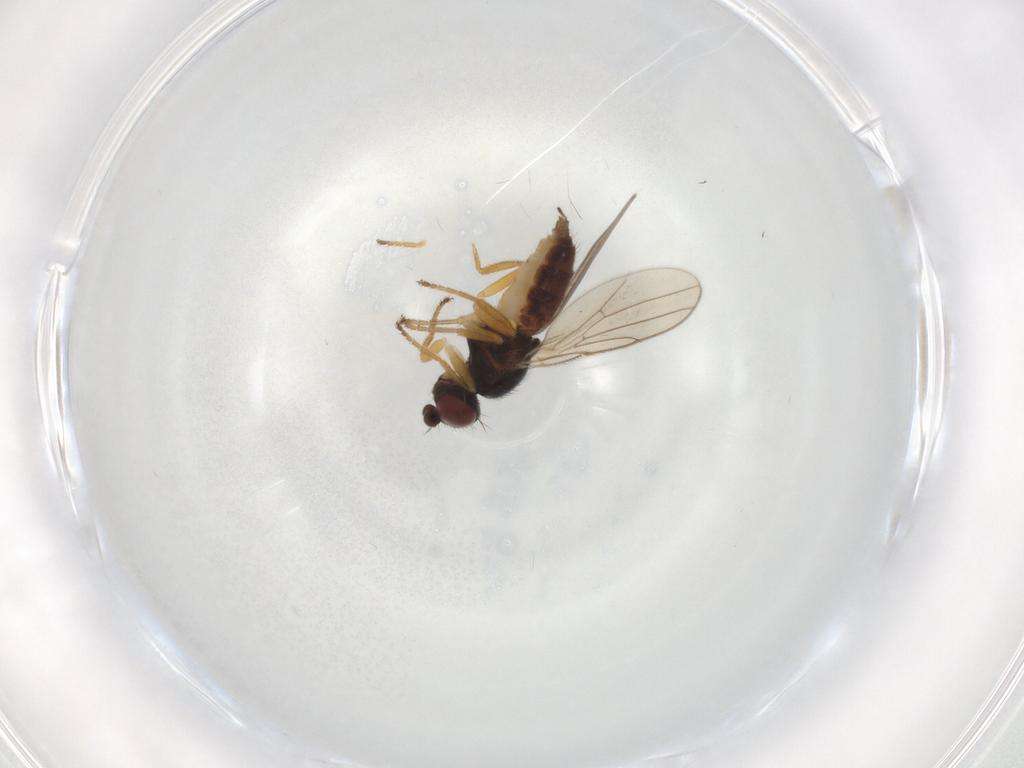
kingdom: Animalia
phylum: Arthropoda
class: Insecta
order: Diptera
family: Chloropidae
